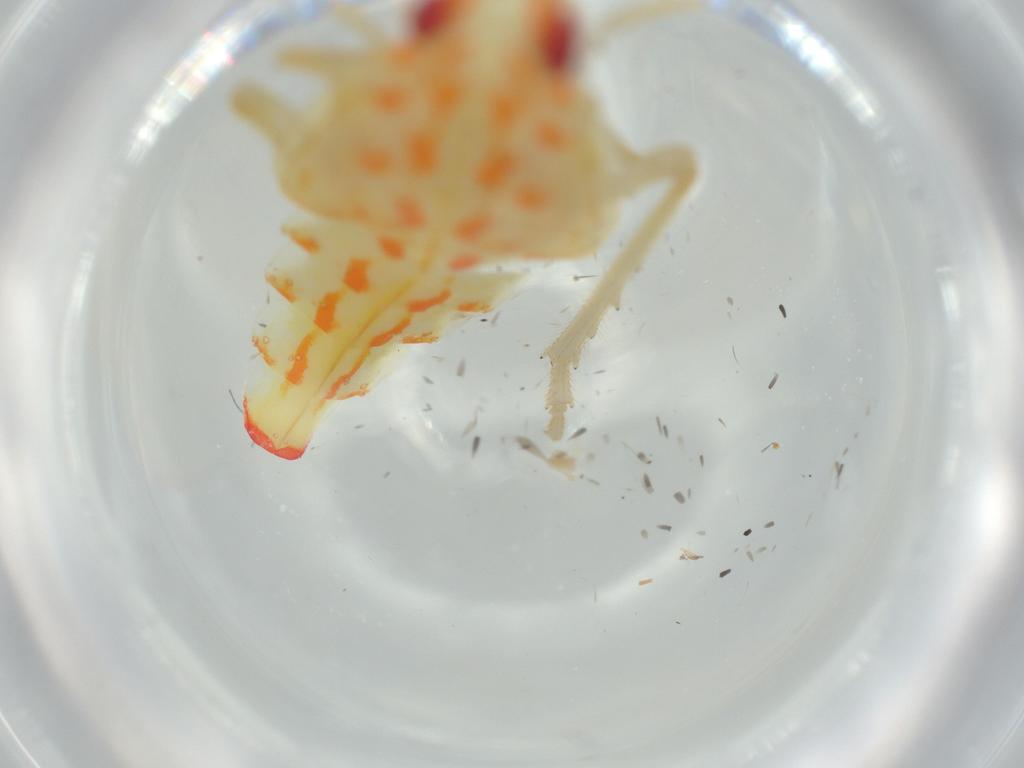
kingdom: Animalia
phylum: Arthropoda
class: Insecta
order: Hemiptera
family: Tropiduchidae
